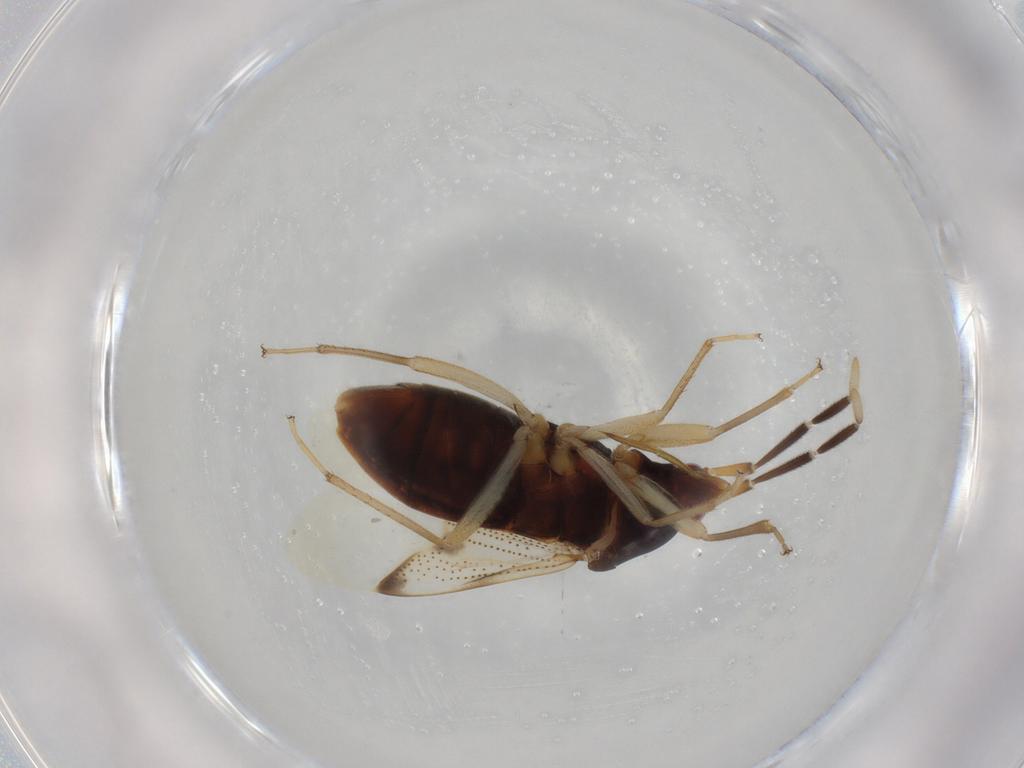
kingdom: Animalia
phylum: Arthropoda
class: Insecta
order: Hemiptera
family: Rhyparochromidae
